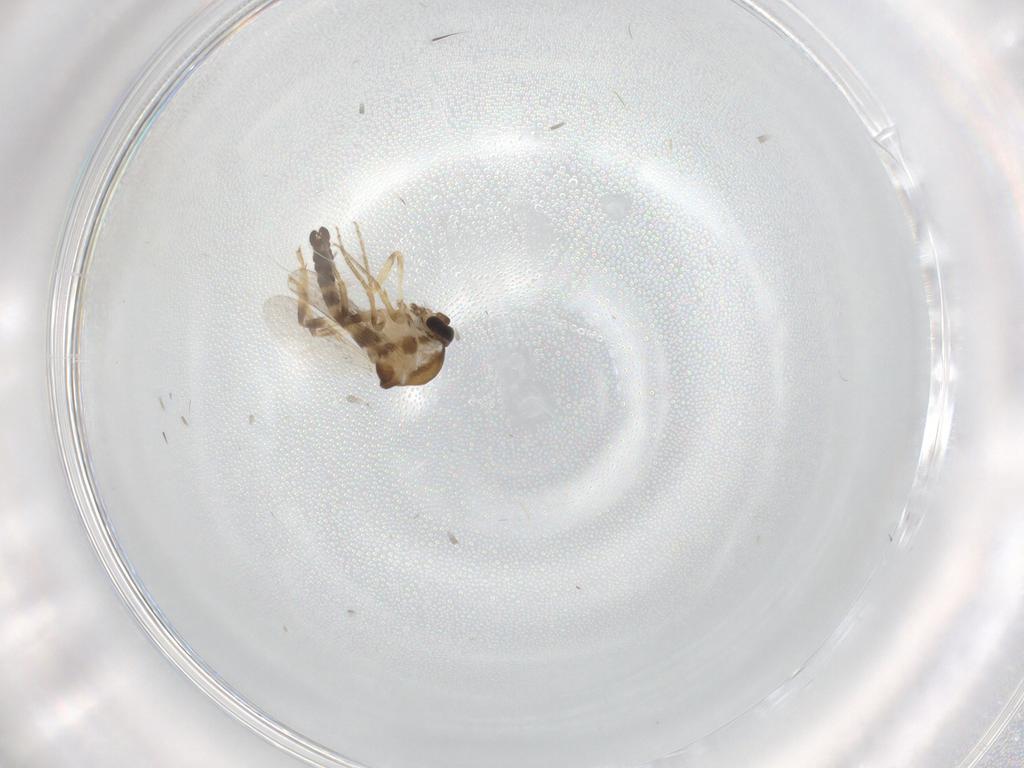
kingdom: Animalia
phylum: Arthropoda
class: Insecta
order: Diptera
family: Ceratopogonidae
